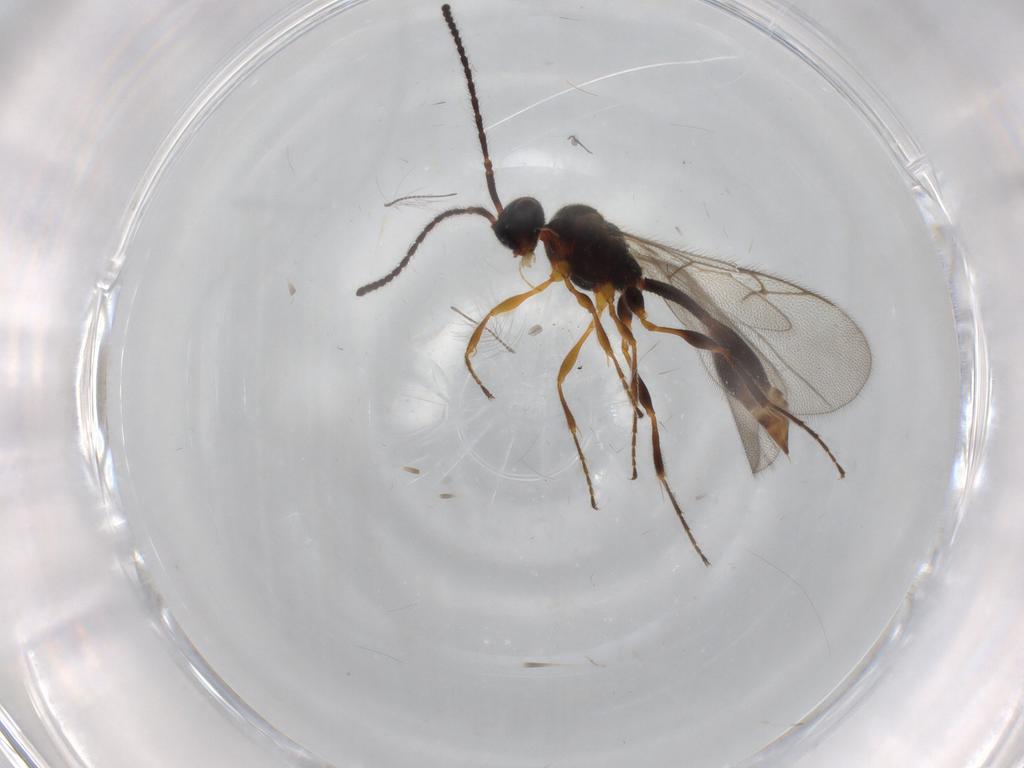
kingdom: Animalia
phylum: Arthropoda
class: Insecta
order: Hymenoptera
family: Diapriidae
